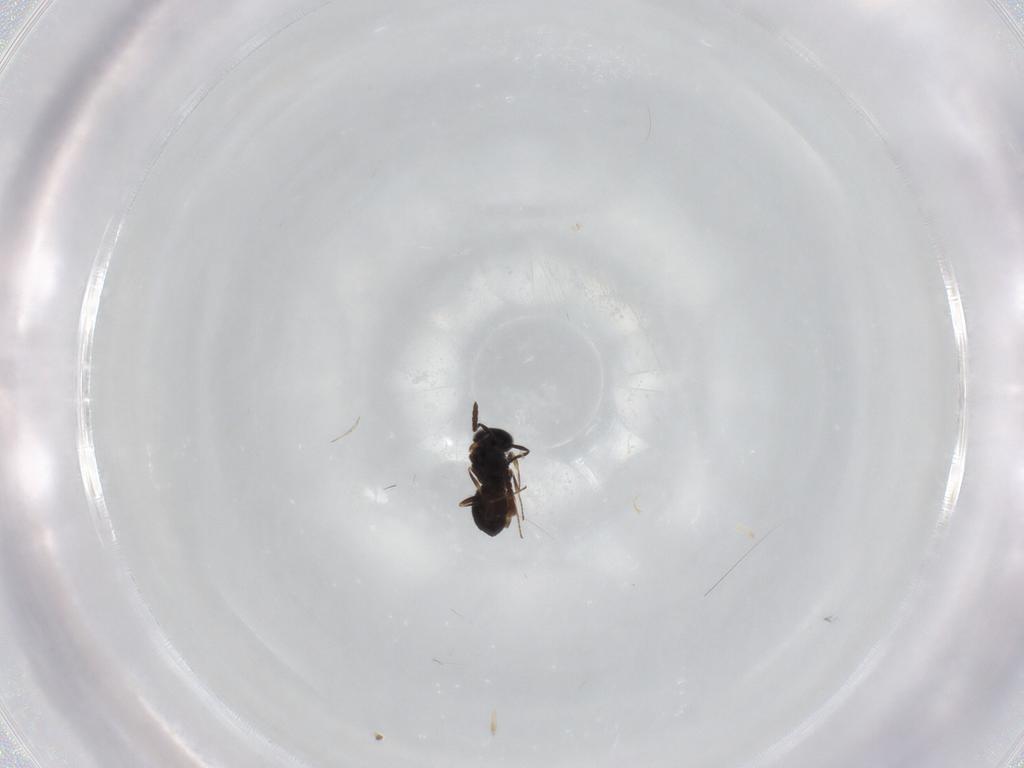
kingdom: Animalia
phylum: Arthropoda
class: Insecta
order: Hymenoptera
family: Scelionidae
